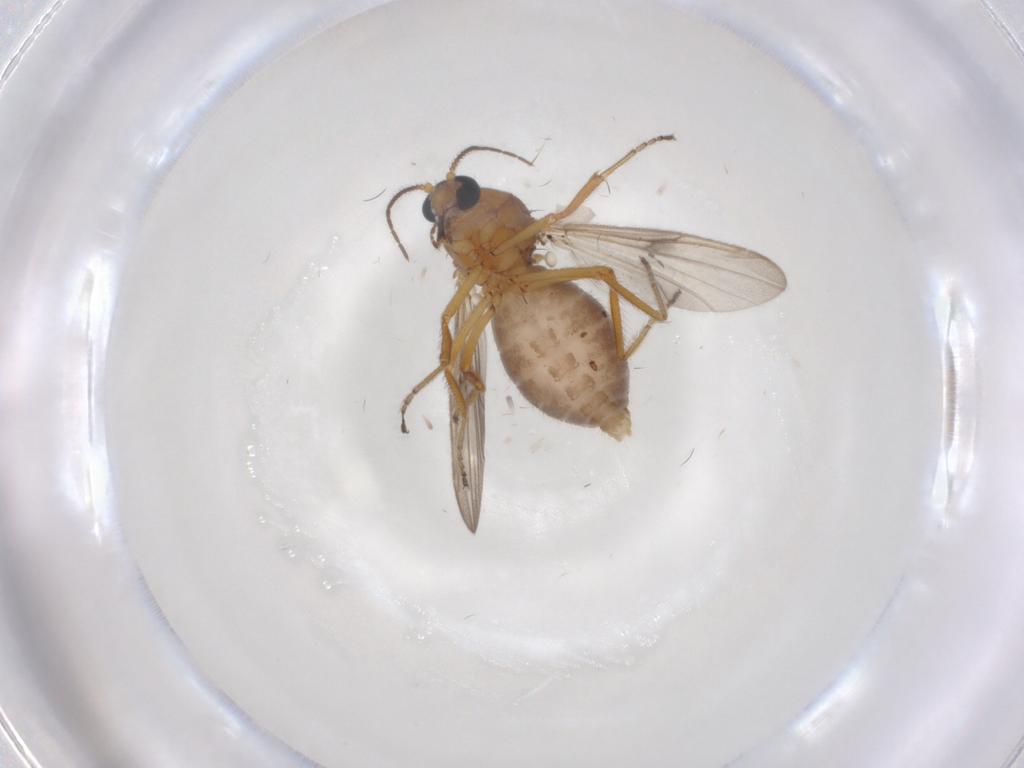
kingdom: Animalia
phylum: Arthropoda
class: Insecta
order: Diptera
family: Ceratopogonidae
